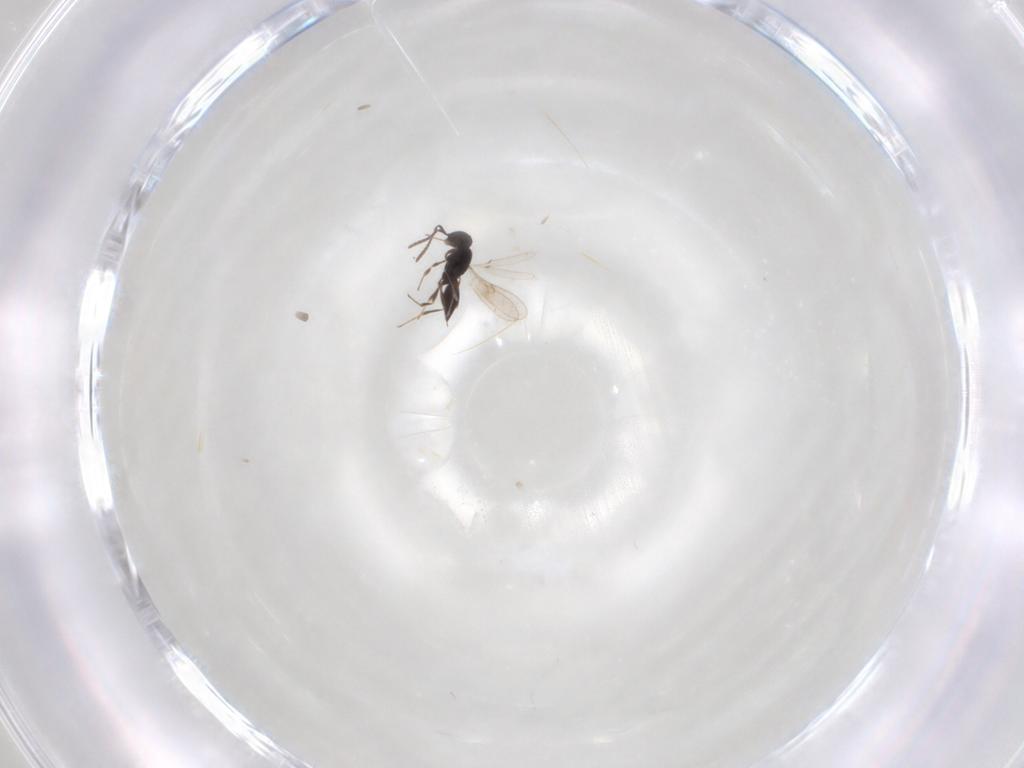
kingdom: Animalia
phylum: Arthropoda
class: Insecta
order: Hymenoptera
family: Scelionidae
